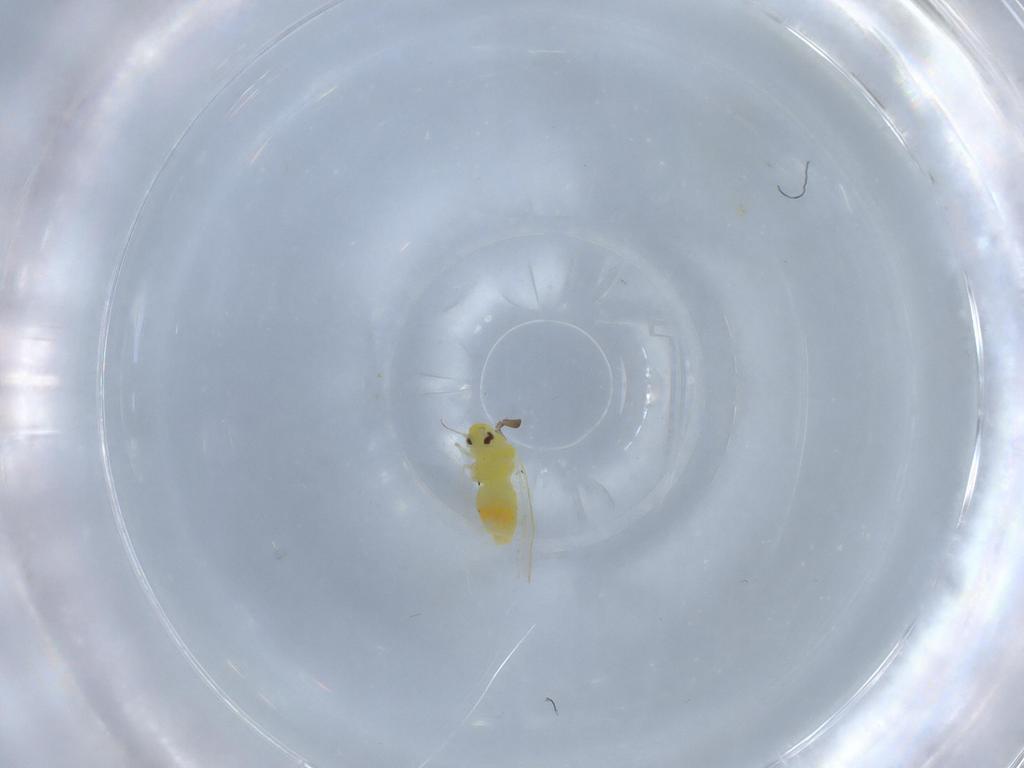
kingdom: Animalia
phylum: Arthropoda
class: Insecta
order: Hemiptera
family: Aleyrodidae
